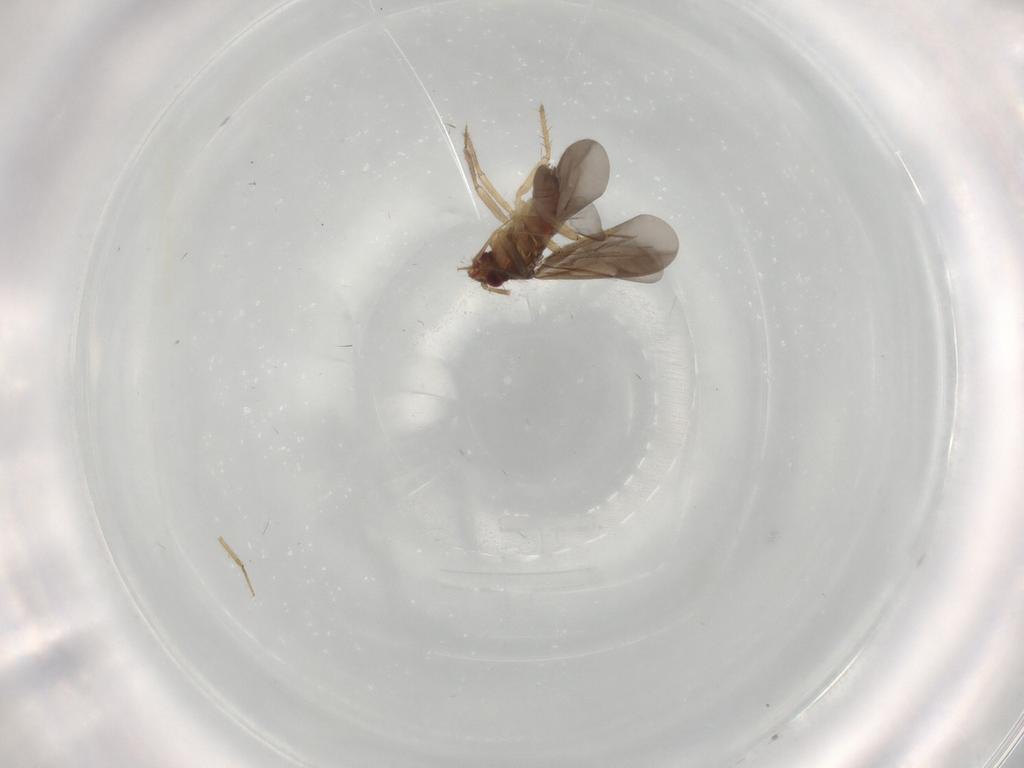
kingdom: Animalia
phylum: Arthropoda
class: Insecta
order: Hemiptera
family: Ceratocombidae
